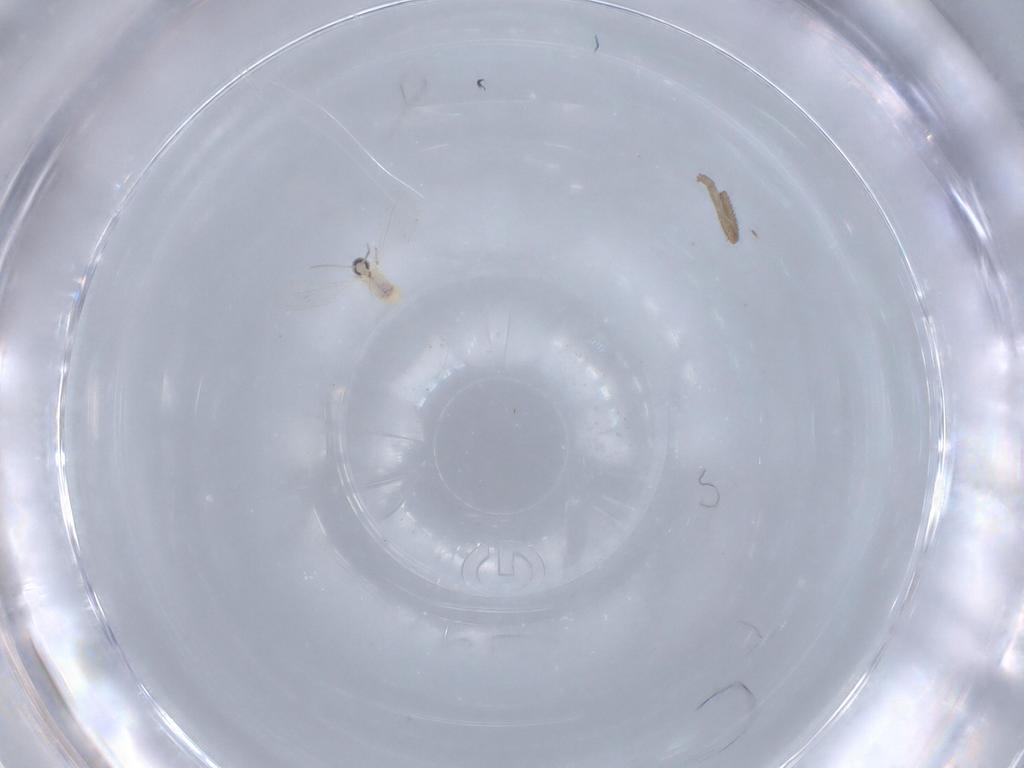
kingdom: Animalia
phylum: Arthropoda
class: Insecta
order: Diptera
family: Cecidomyiidae
